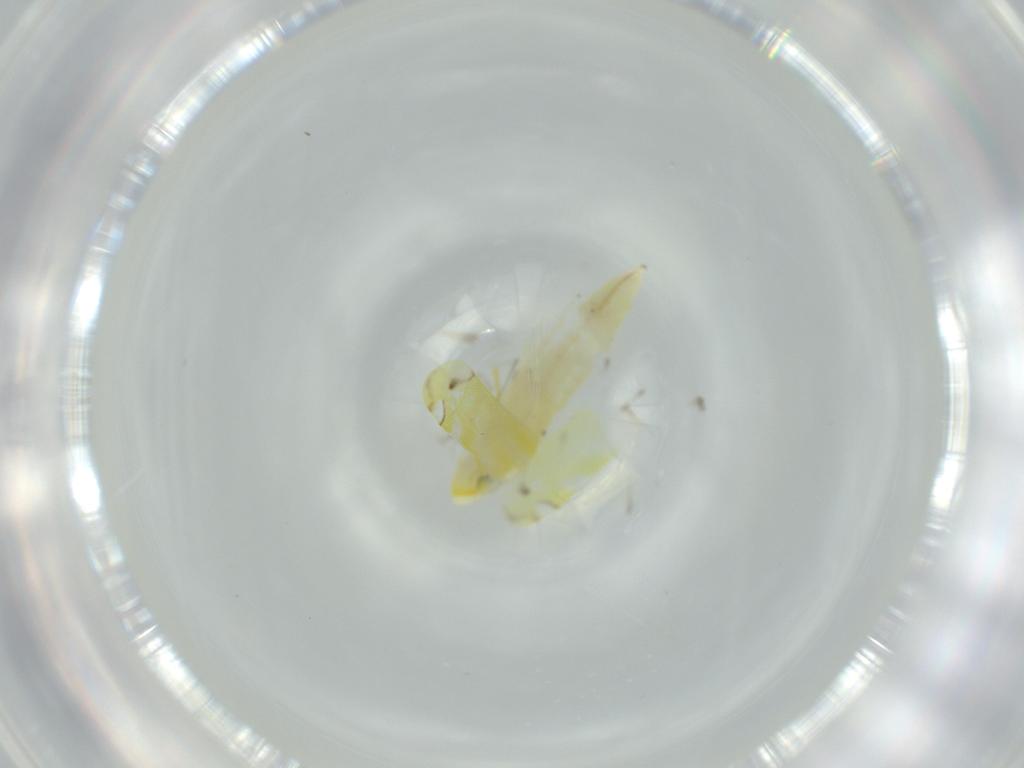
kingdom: Animalia
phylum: Arthropoda
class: Insecta
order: Hemiptera
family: Cicadellidae
